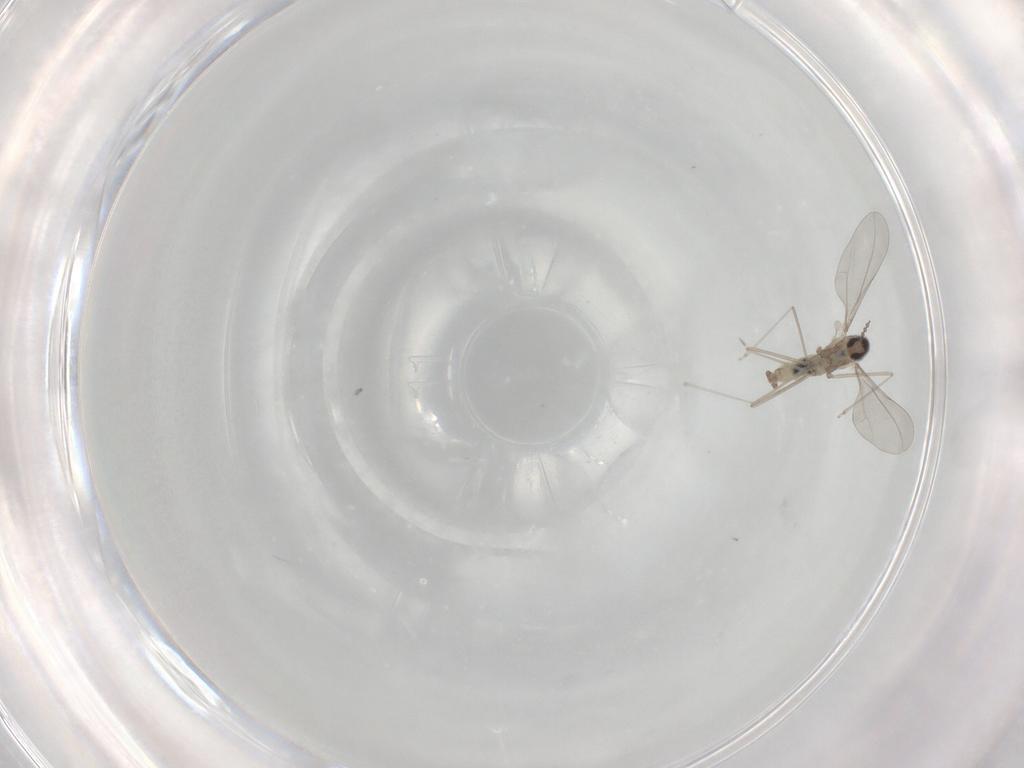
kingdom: Animalia
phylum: Arthropoda
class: Insecta
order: Diptera
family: Cecidomyiidae
